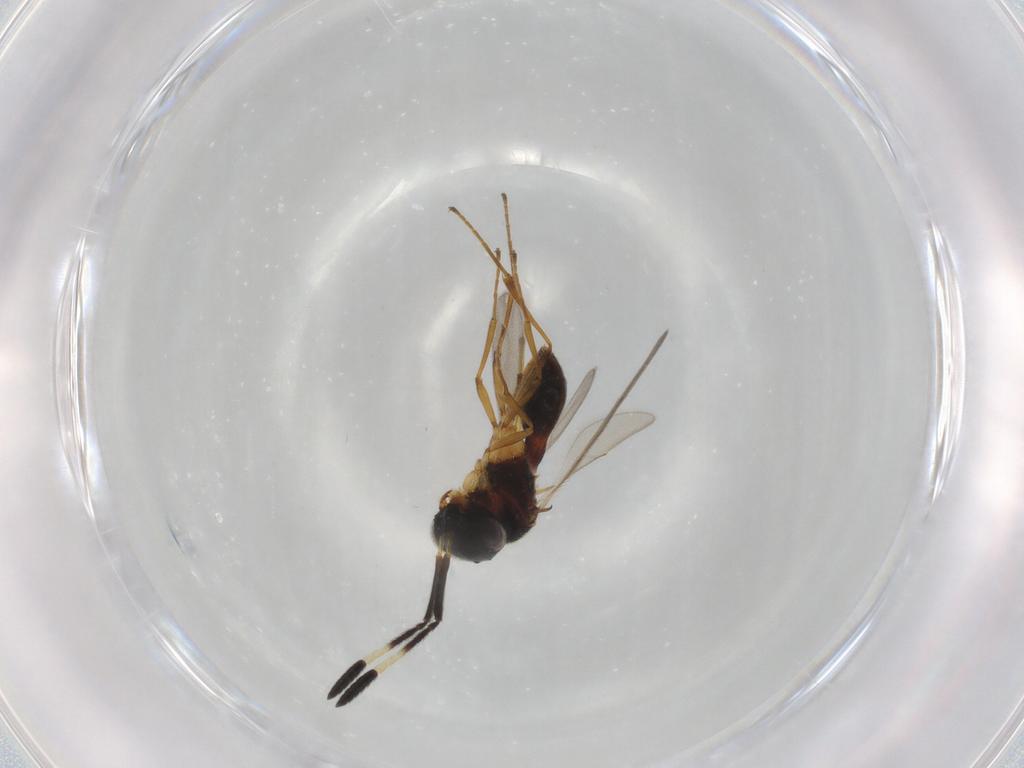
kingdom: Animalia
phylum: Arthropoda
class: Insecta
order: Hymenoptera
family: Scelionidae
